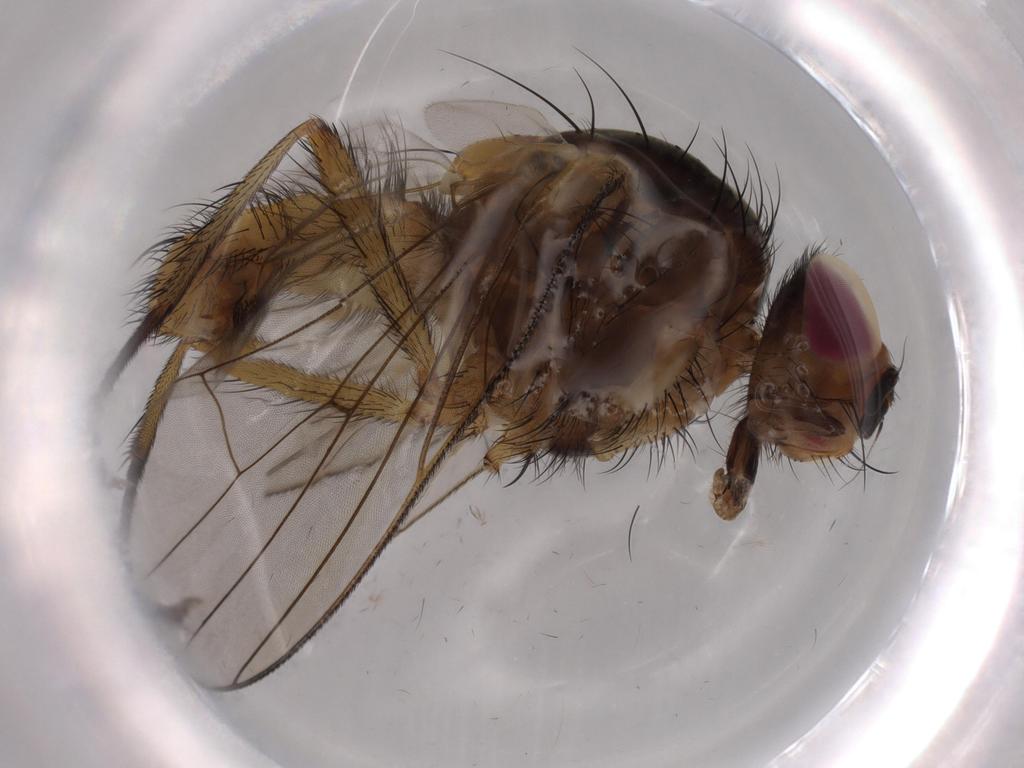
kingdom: Animalia
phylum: Arthropoda
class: Insecta
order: Diptera
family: Anthomyiidae
